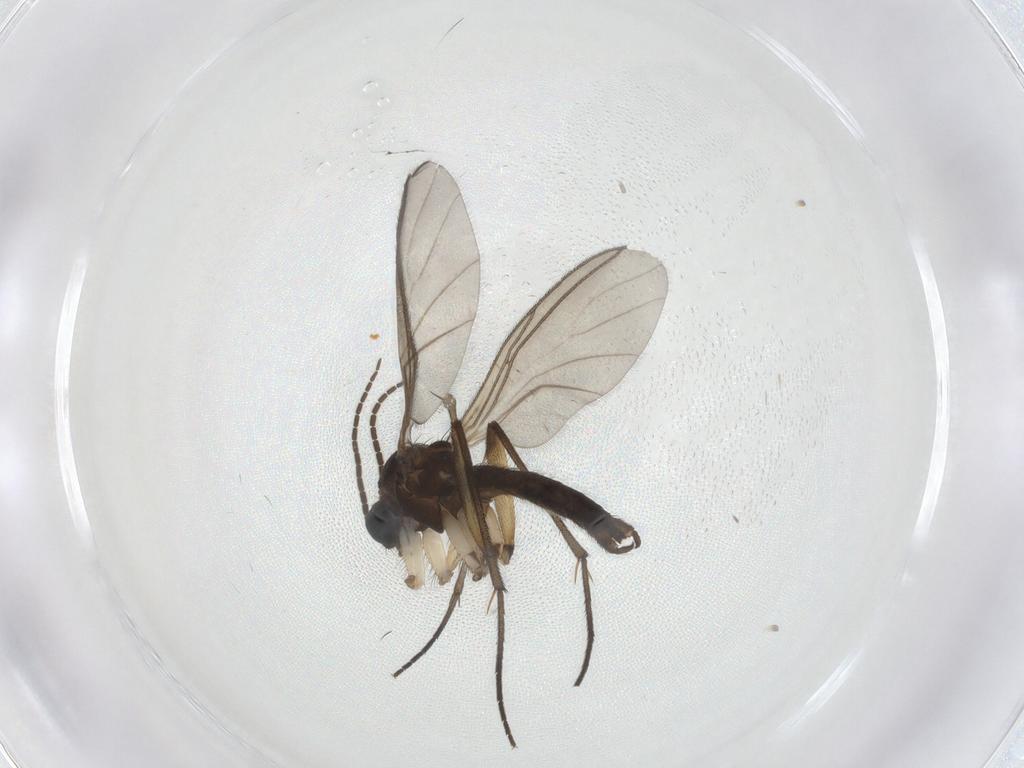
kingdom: Animalia
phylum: Arthropoda
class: Insecta
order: Diptera
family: Sciaridae
